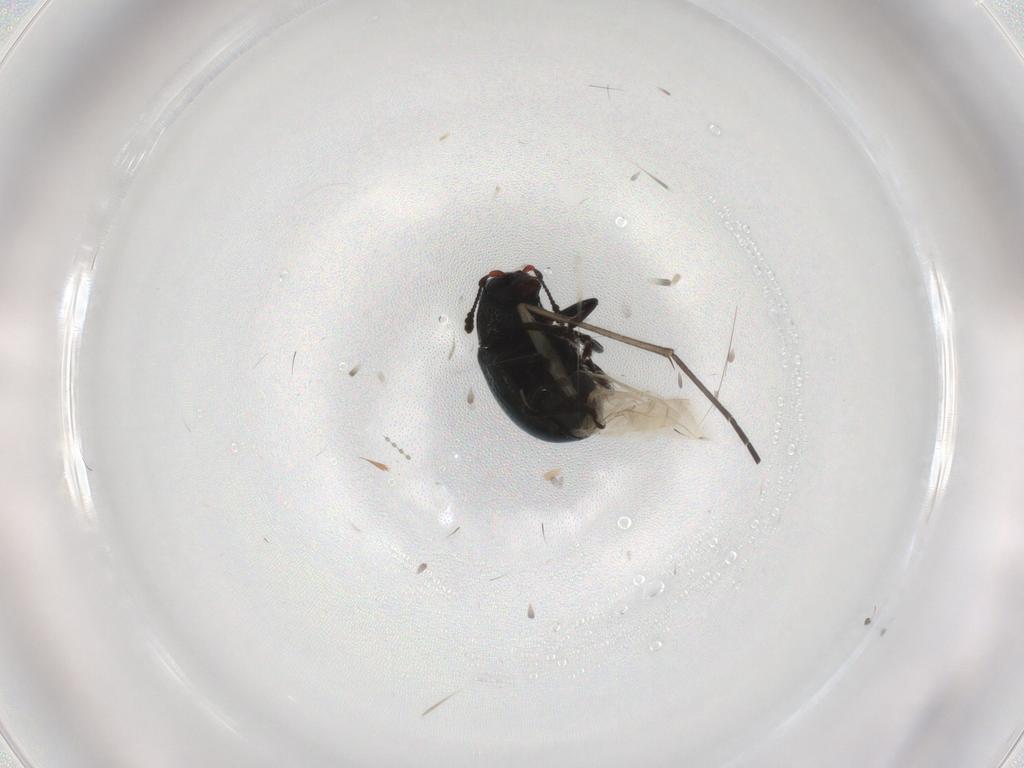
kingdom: Animalia
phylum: Arthropoda
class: Insecta
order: Coleoptera
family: Anthribidae
